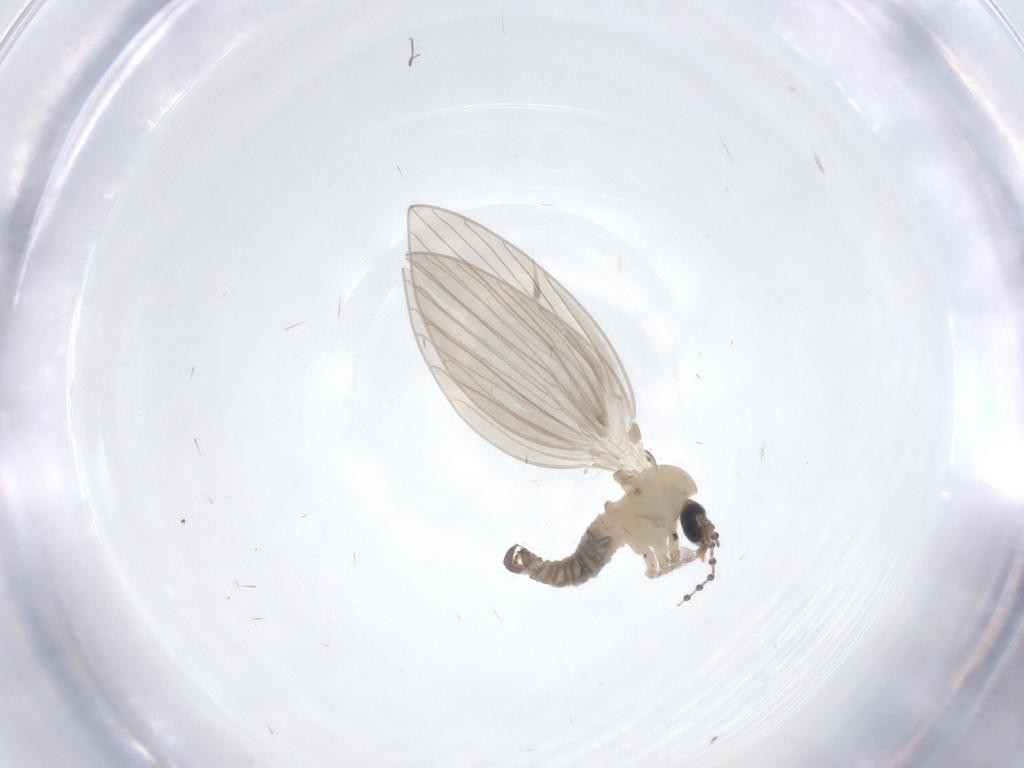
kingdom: Animalia
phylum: Arthropoda
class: Insecta
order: Diptera
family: Psychodidae
